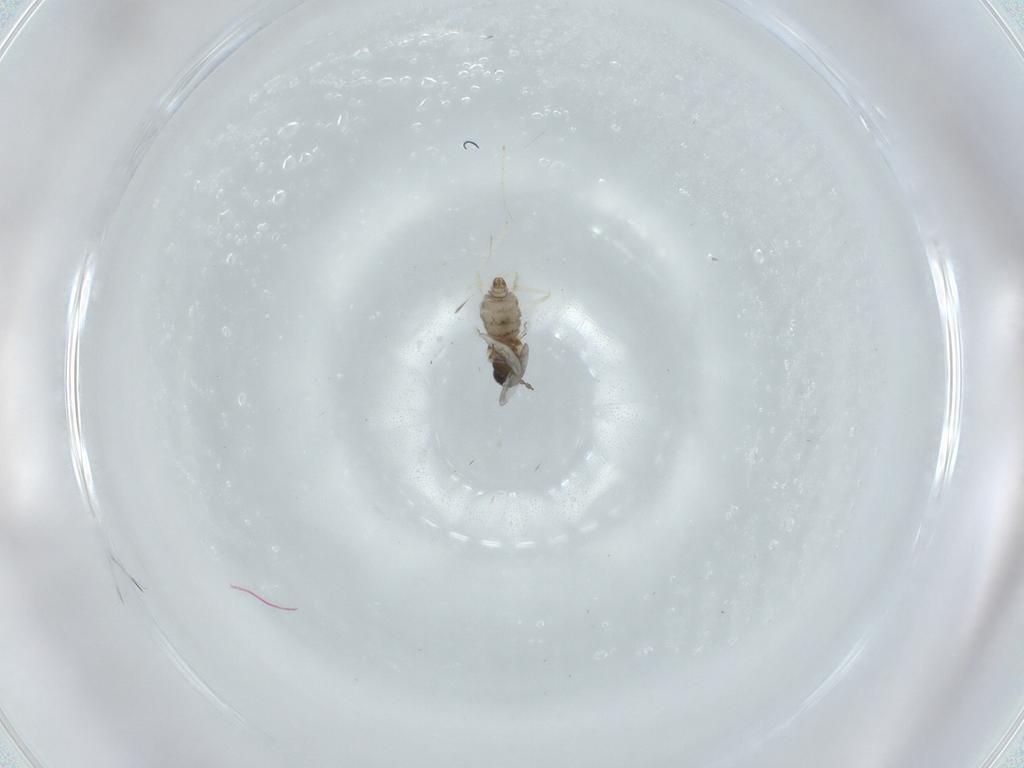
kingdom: Animalia
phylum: Arthropoda
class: Insecta
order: Diptera
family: Cecidomyiidae
